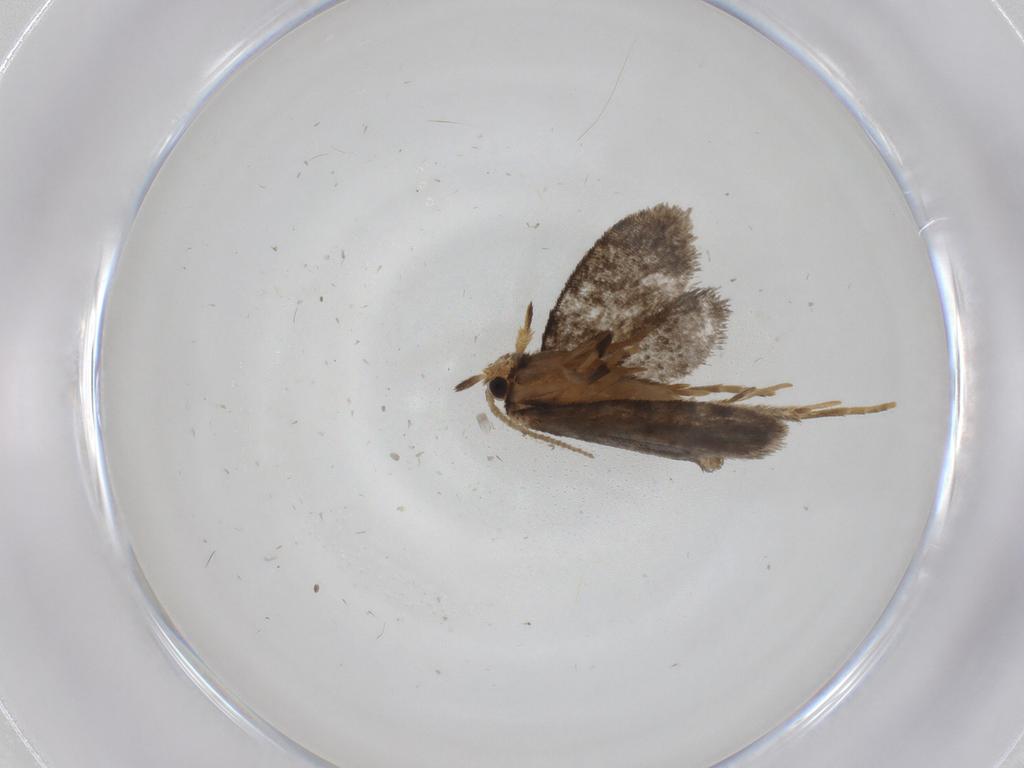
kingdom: Animalia
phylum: Arthropoda
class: Insecta
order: Lepidoptera
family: Psychidae
